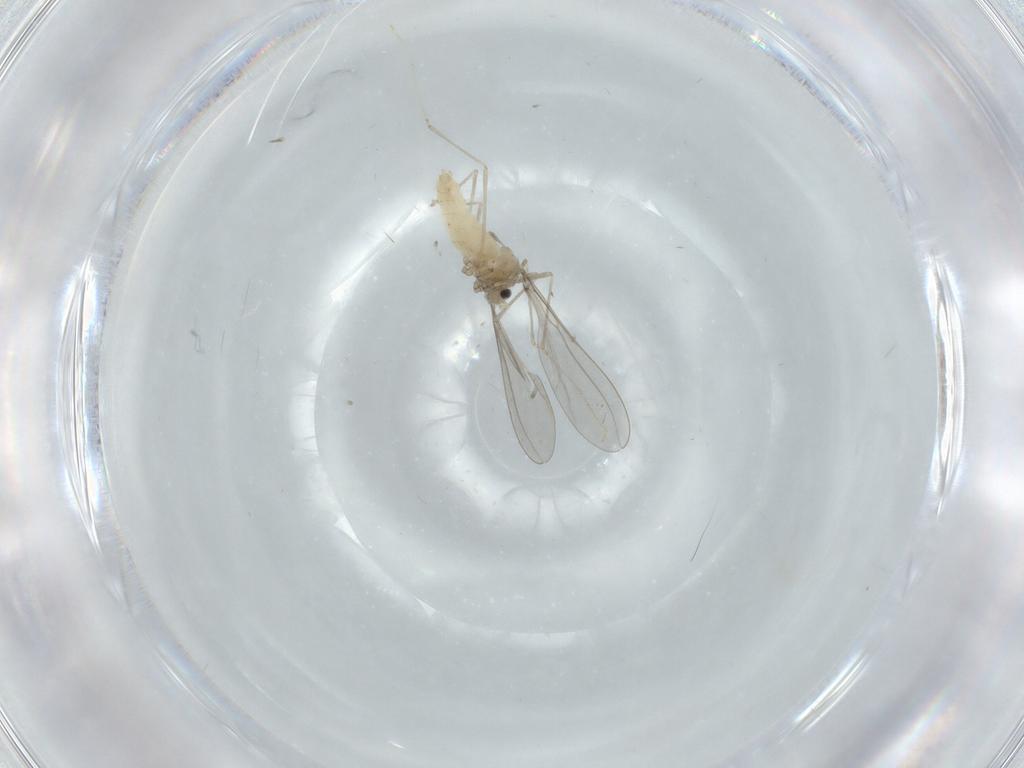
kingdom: Animalia
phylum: Arthropoda
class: Insecta
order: Diptera
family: Cecidomyiidae
